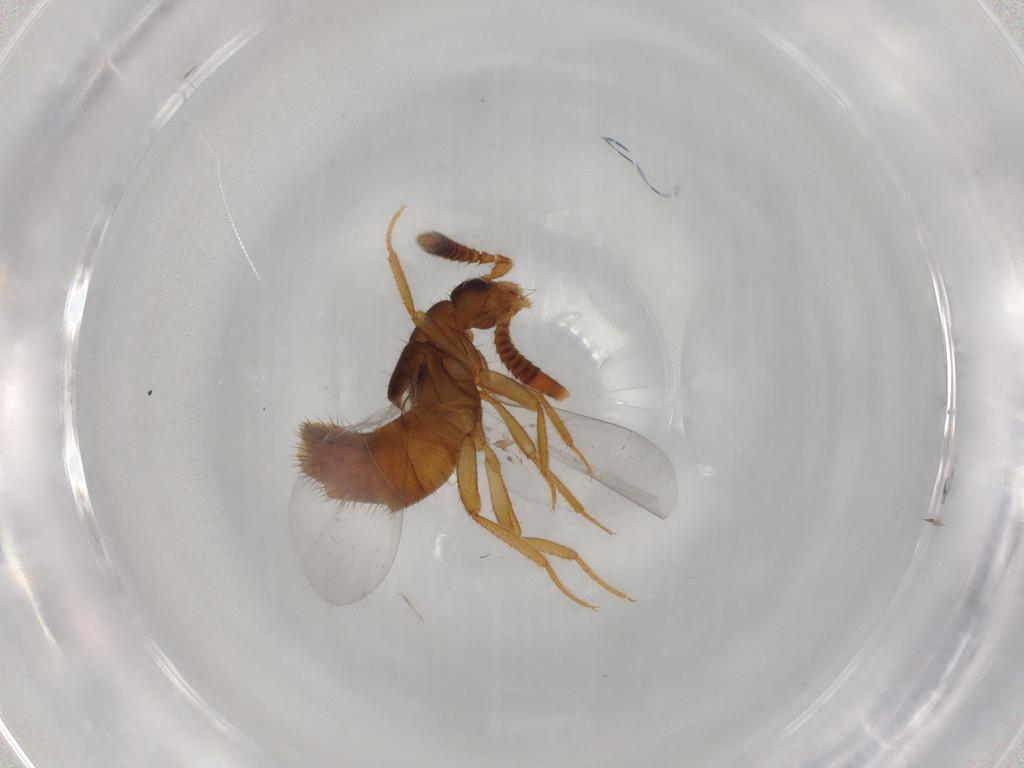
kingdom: Animalia
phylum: Arthropoda
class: Insecta
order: Coleoptera
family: Staphylinidae
